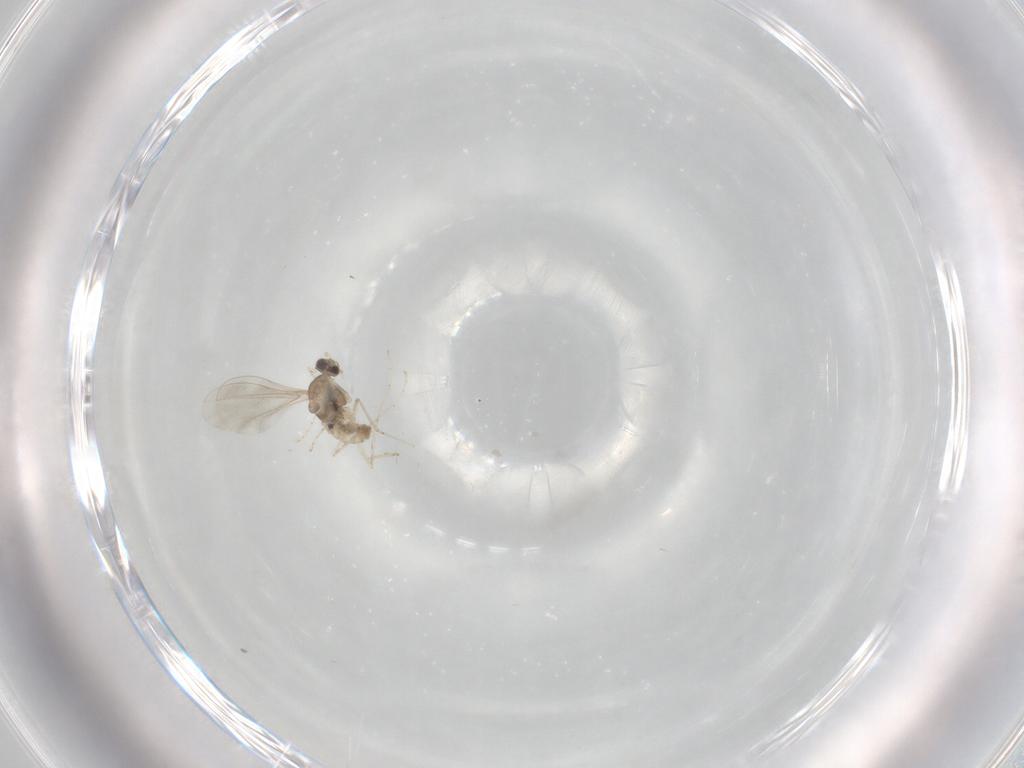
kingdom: Animalia
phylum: Arthropoda
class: Insecta
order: Diptera
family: Cecidomyiidae
